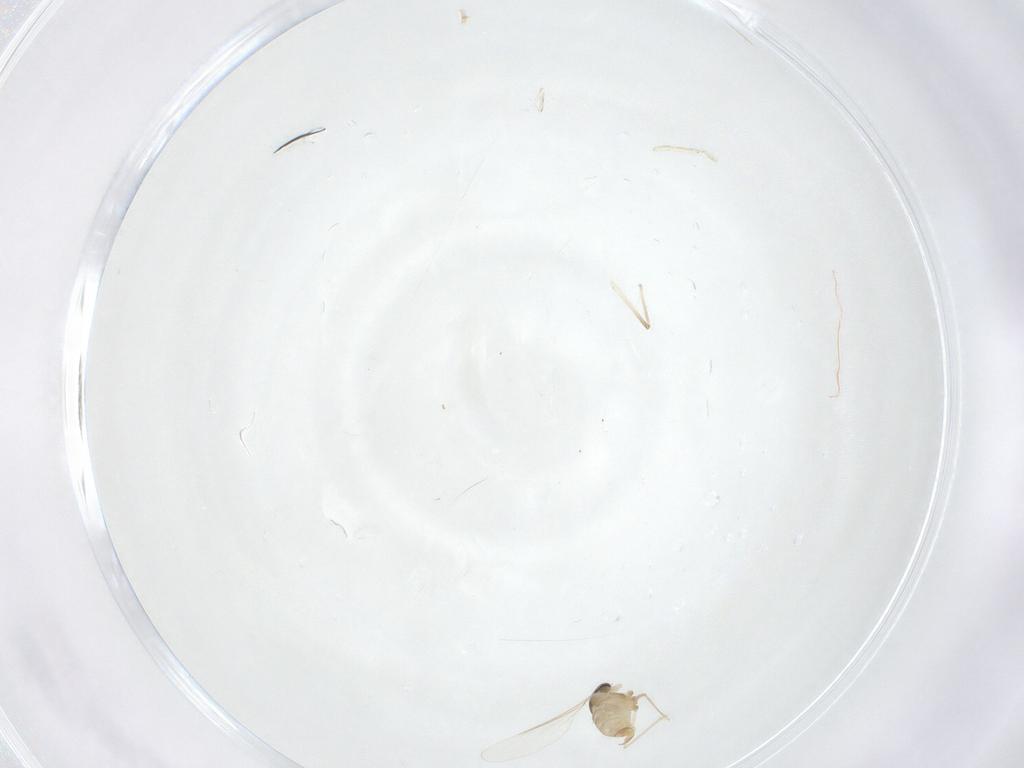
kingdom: Animalia
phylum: Arthropoda
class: Insecta
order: Diptera
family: Cecidomyiidae
